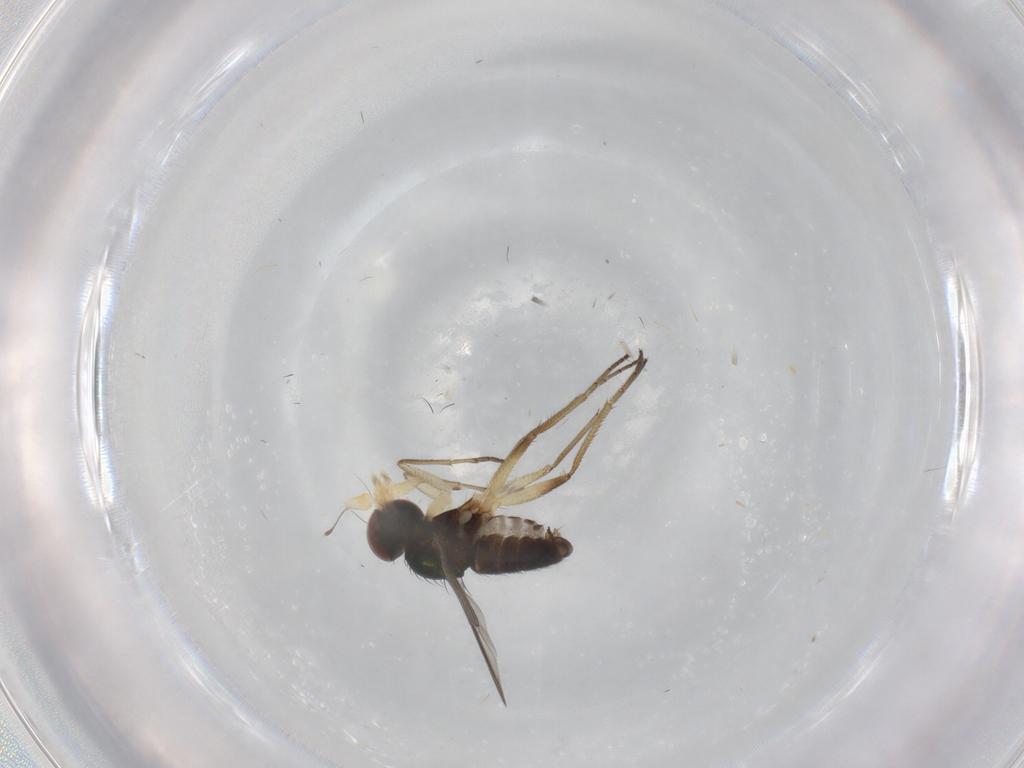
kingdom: Animalia
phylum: Arthropoda
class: Insecta
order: Diptera
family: Dolichopodidae
